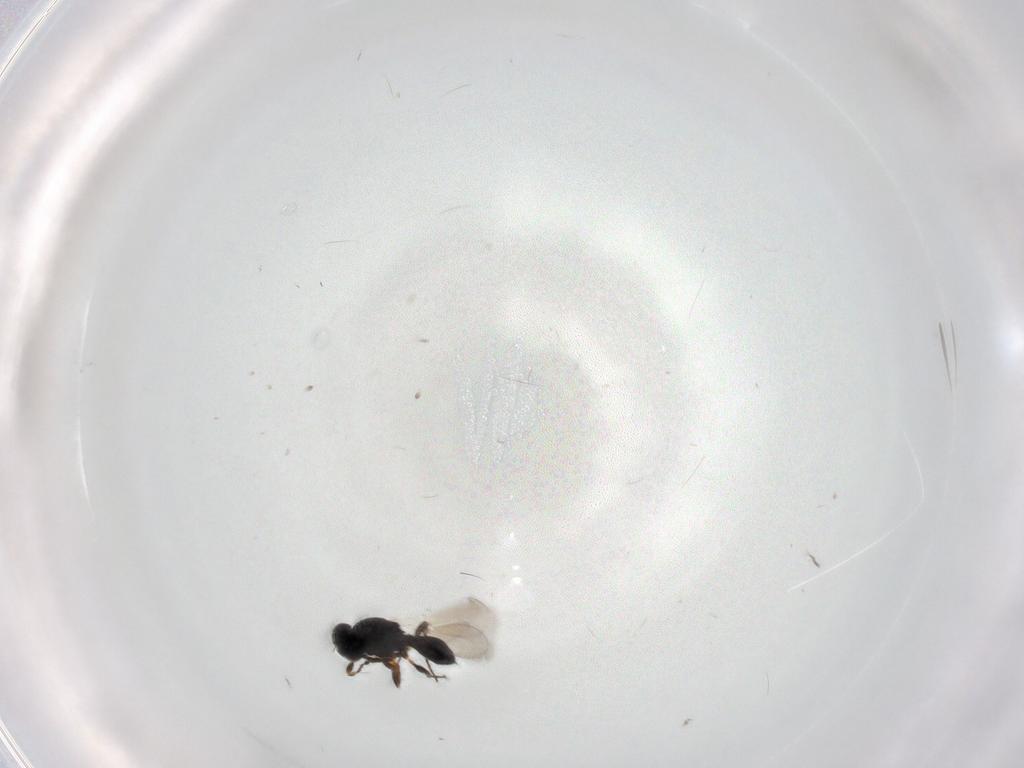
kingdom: Animalia
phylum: Arthropoda
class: Insecta
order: Hymenoptera
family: Platygastridae
